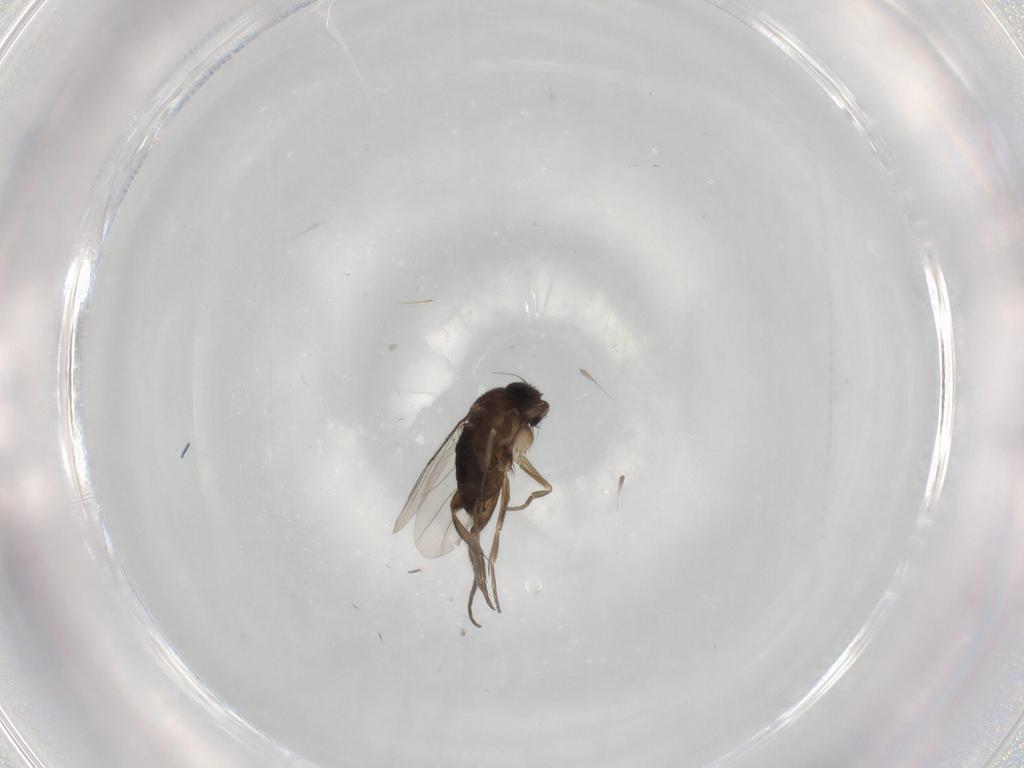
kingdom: Animalia
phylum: Arthropoda
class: Insecta
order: Diptera
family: Phoridae
